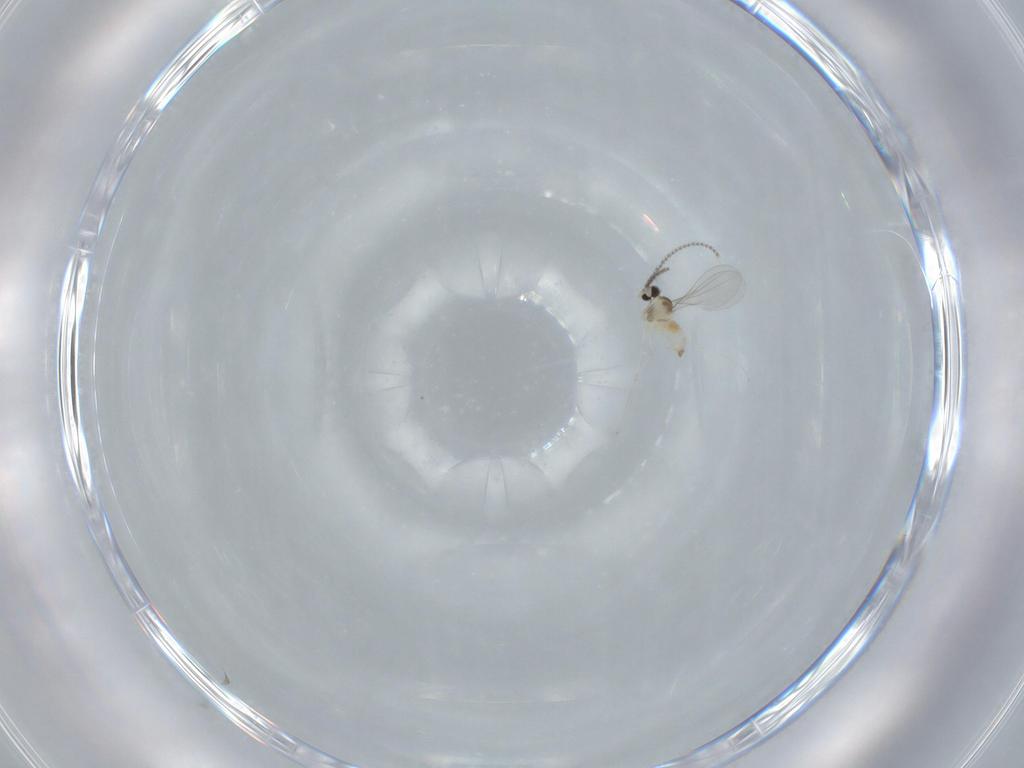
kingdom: Animalia
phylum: Arthropoda
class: Insecta
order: Diptera
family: Cecidomyiidae
